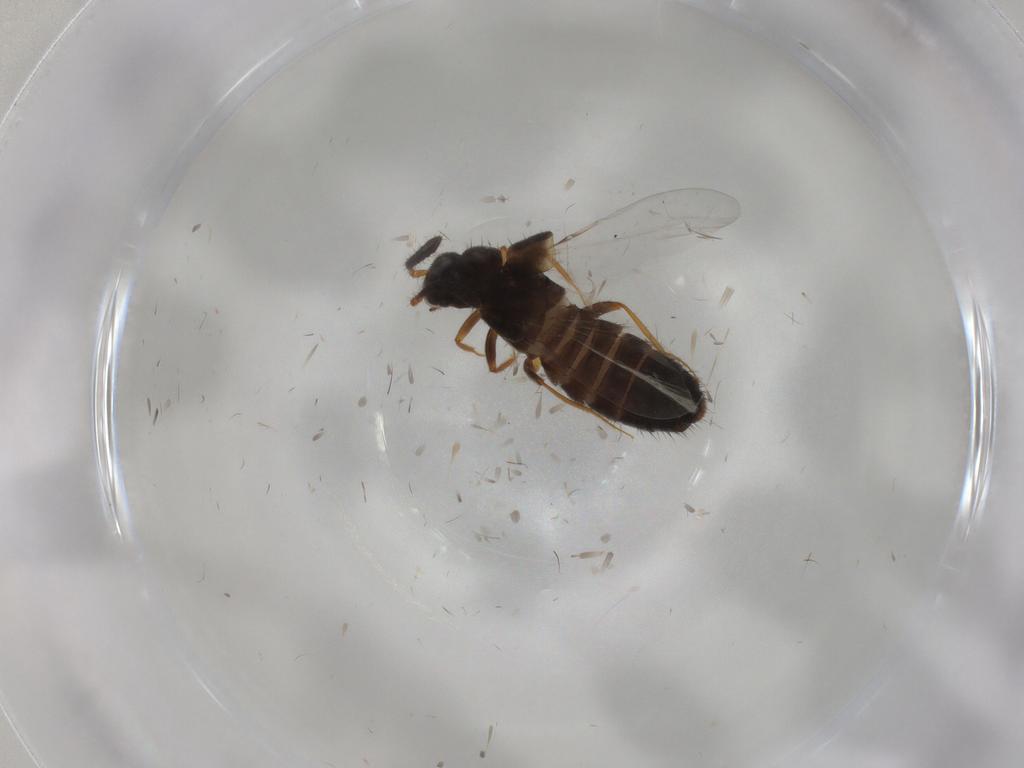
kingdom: Animalia
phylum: Arthropoda
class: Insecta
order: Coleoptera
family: Staphylinidae
